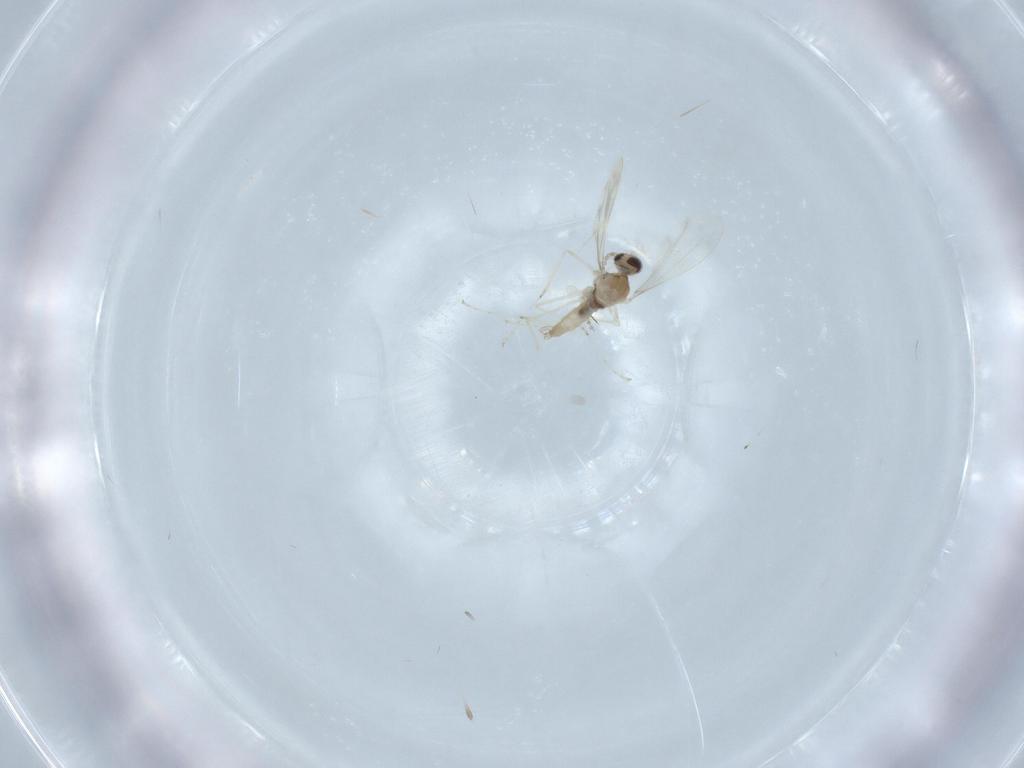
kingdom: Animalia
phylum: Arthropoda
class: Insecta
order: Diptera
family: Cecidomyiidae
